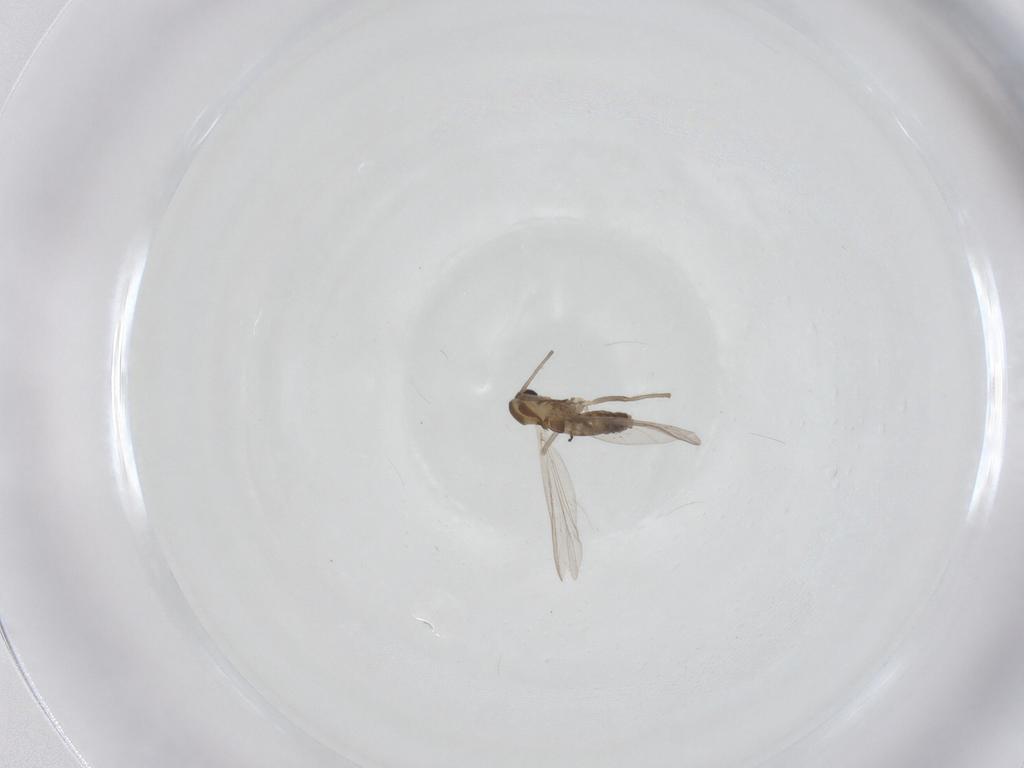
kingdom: Animalia
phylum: Arthropoda
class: Insecta
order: Diptera
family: Chironomidae
